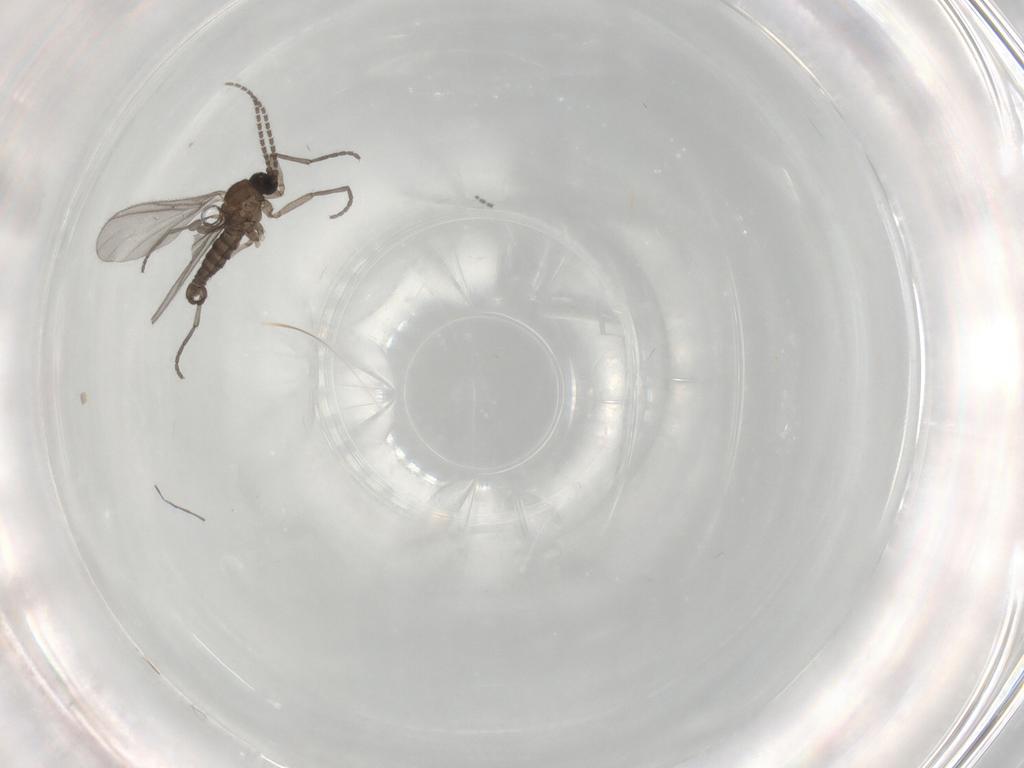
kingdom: Animalia
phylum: Arthropoda
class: Insecta
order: Diptera
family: Sciaridae
